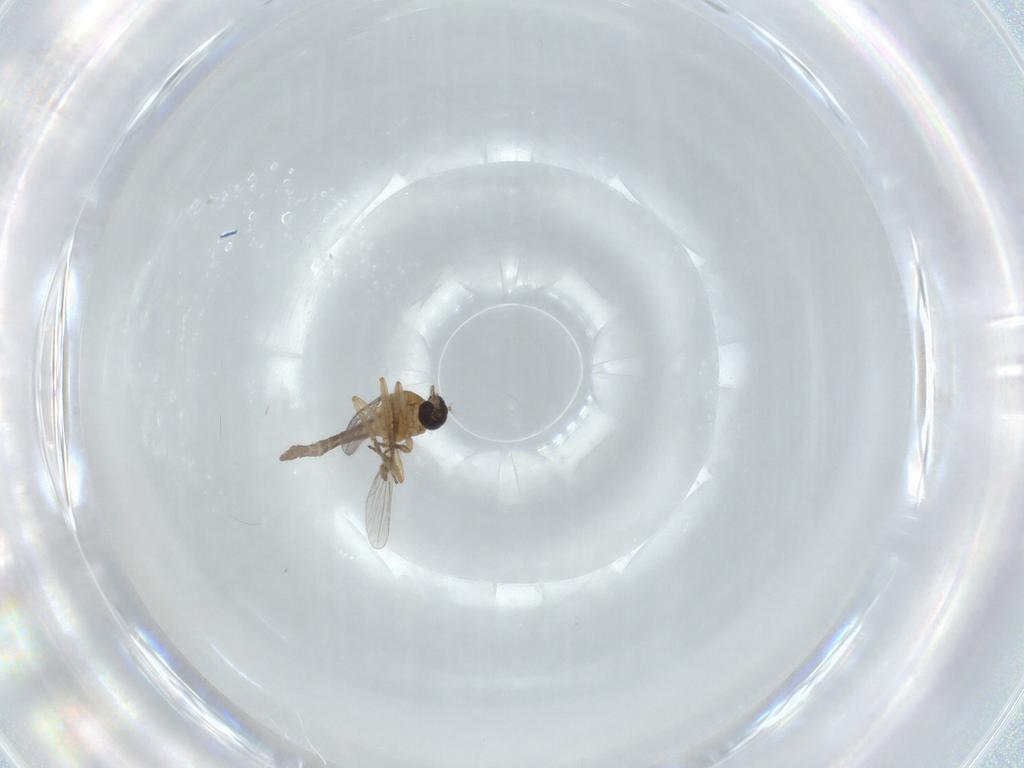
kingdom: Animalia
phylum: Arthropoda
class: Insecta
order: Diptera
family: Ceratopogonidae
